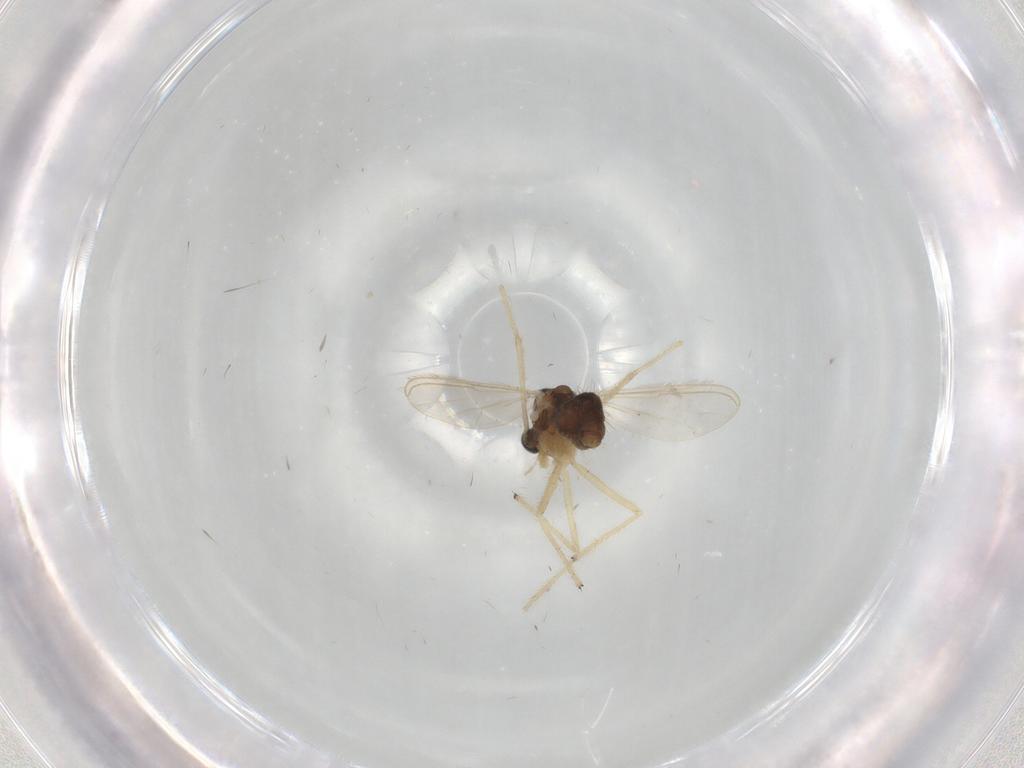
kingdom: Animalia
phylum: Arthropoda
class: Insecta
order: Diptera
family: Chironomidae
